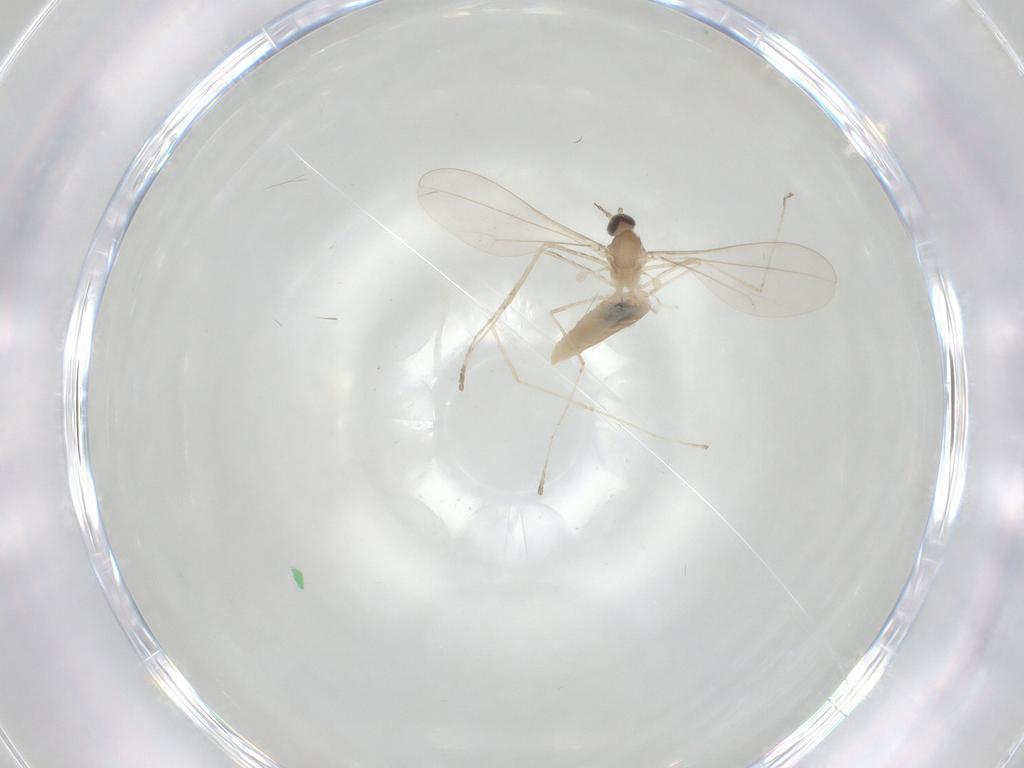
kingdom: Animalia
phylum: Arthropoda
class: Insecta
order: Diptera
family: Cecidomyiidae
